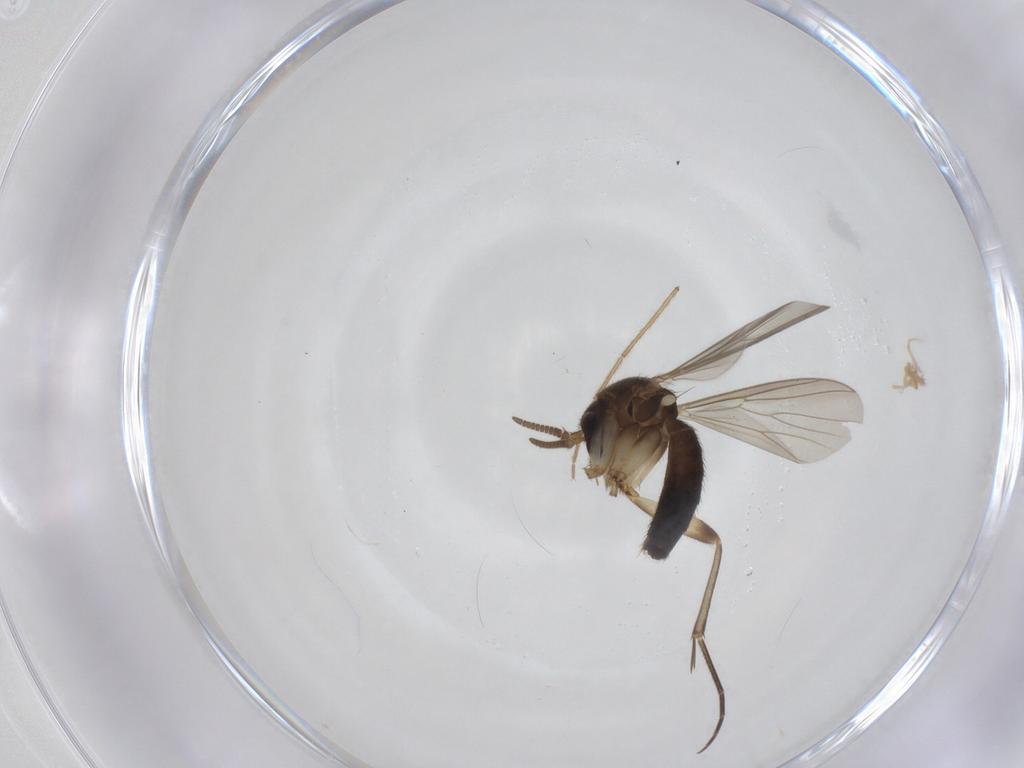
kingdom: Animalia
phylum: Arthropoda
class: Insecta
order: Diptera
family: Mycetophilidae
